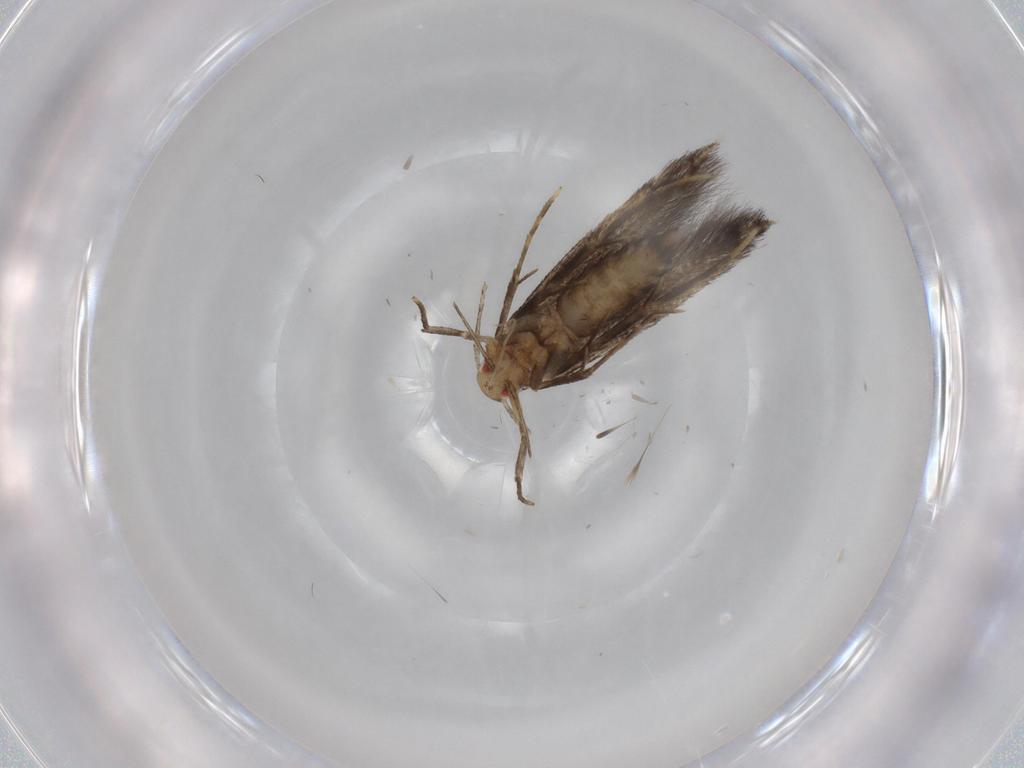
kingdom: Animalia
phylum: Arthropoda
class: Insecta
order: Lepidoptera
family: Cosmopterigidae
